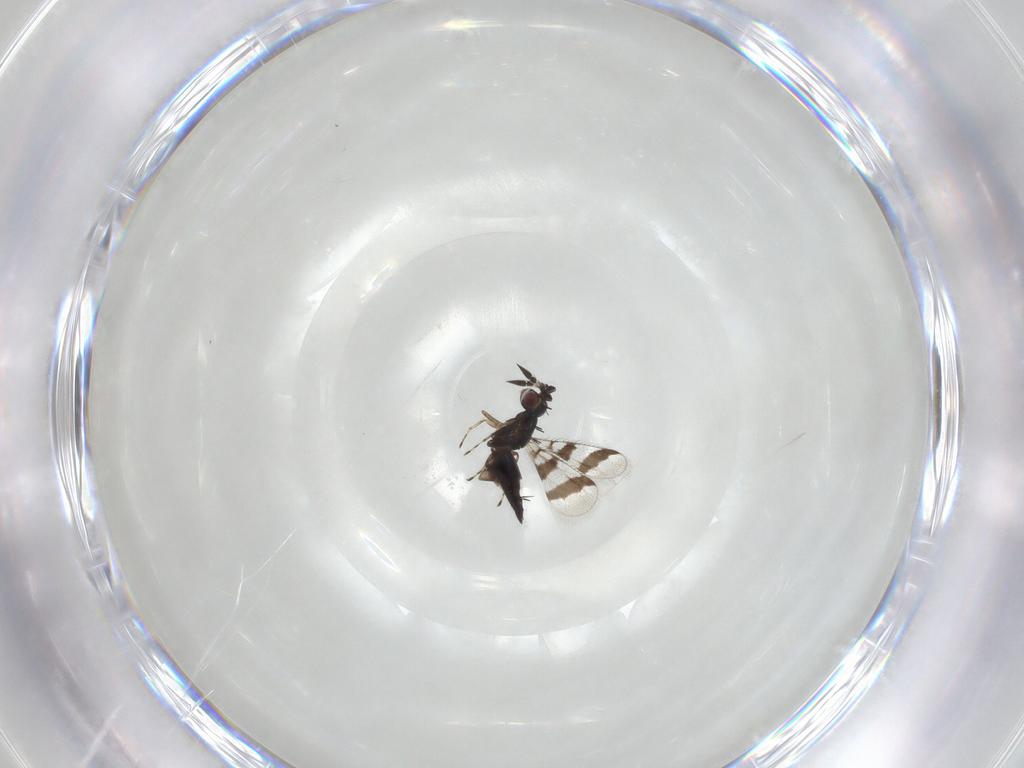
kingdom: Animalia
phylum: Arthropoda
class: Insecta
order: Hymenoptera
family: Eulophidae
